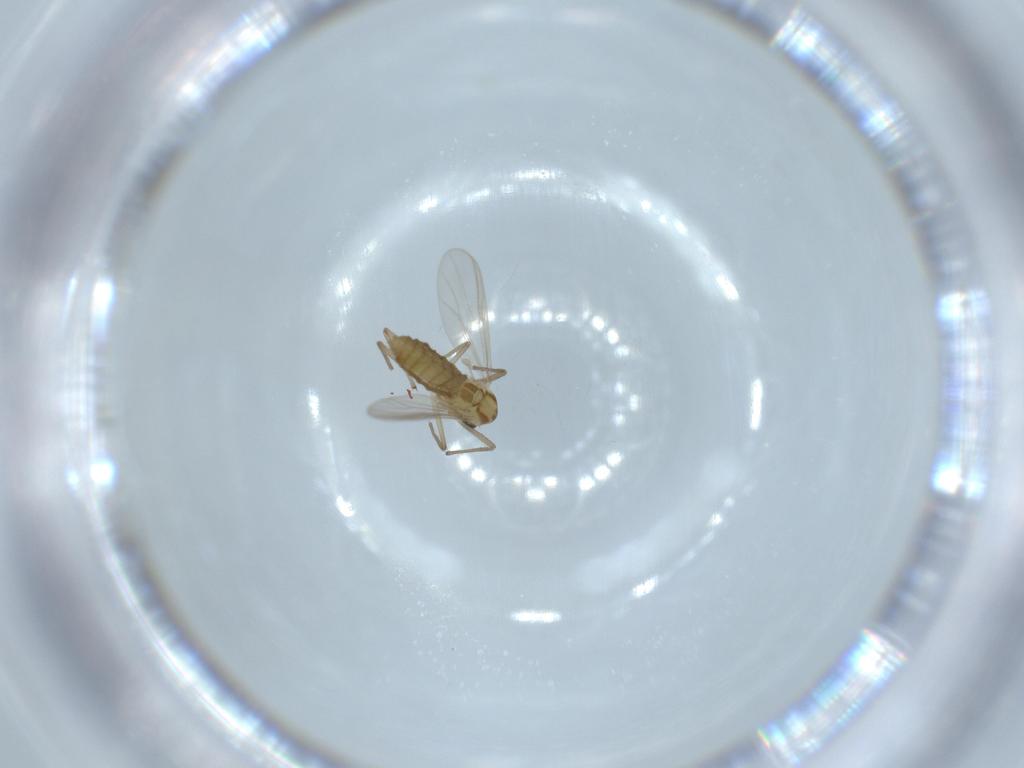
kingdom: Animalia
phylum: Arthropoda
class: Insecta
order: Diptera
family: Chironomidae
